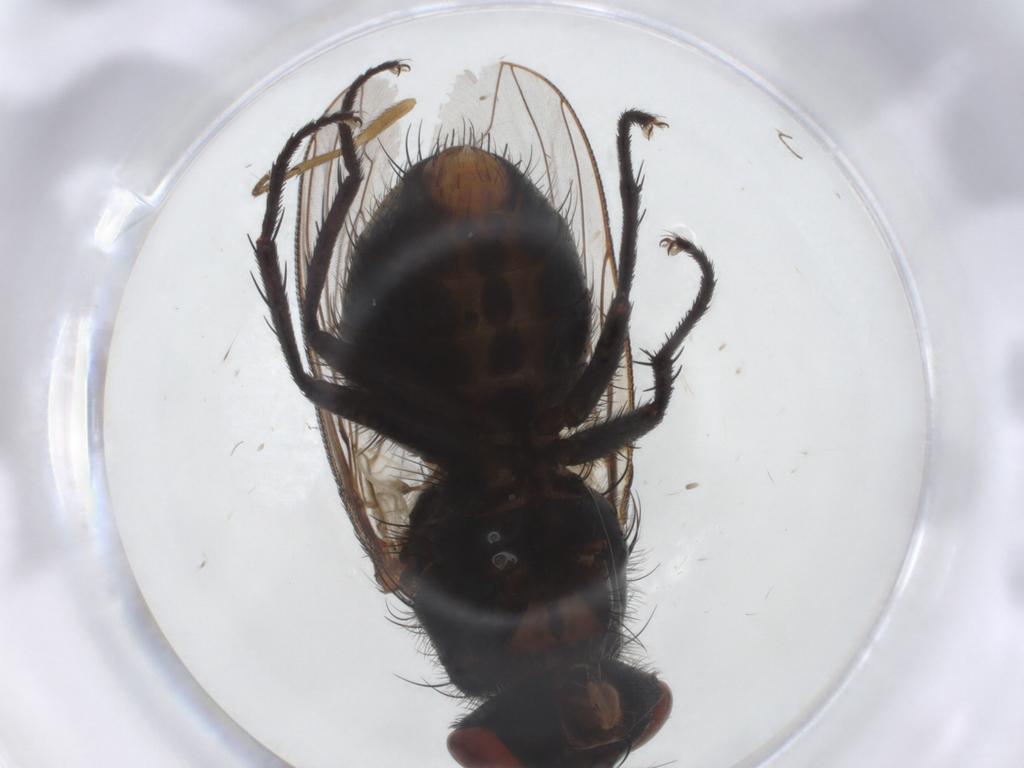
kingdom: Animalia
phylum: Arthropoda
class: Insecta
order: Diptera
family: Sarcophagidae
